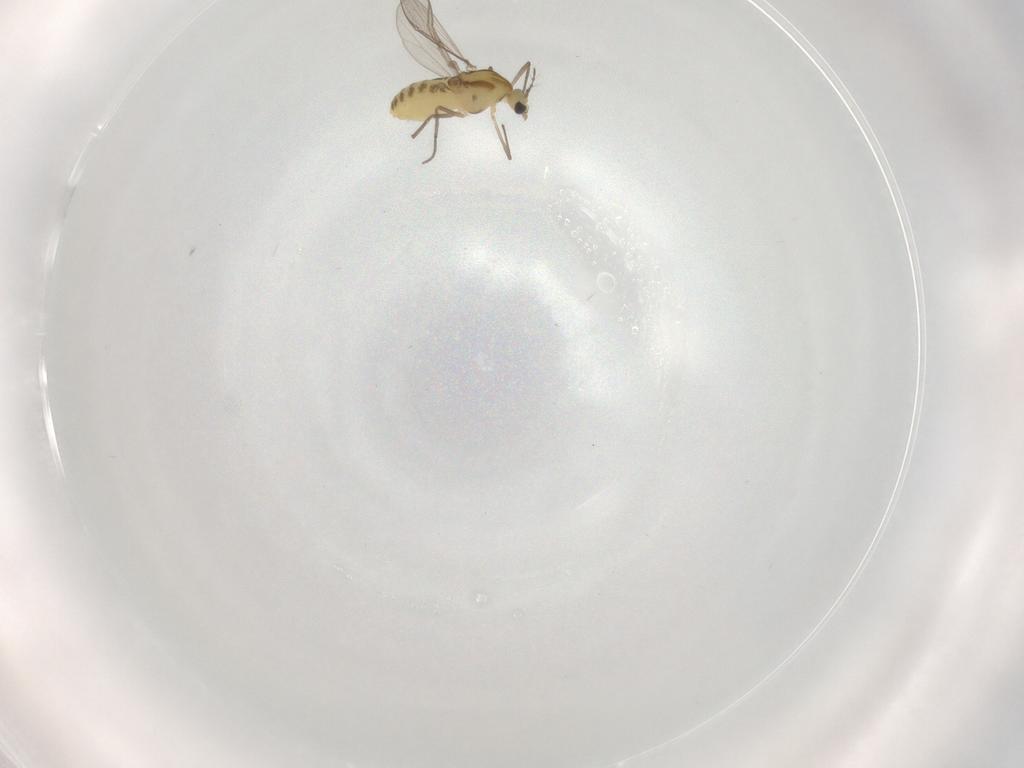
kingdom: Animalia
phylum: Arthropoda
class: Insecta
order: Diptera
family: Chironomidae
